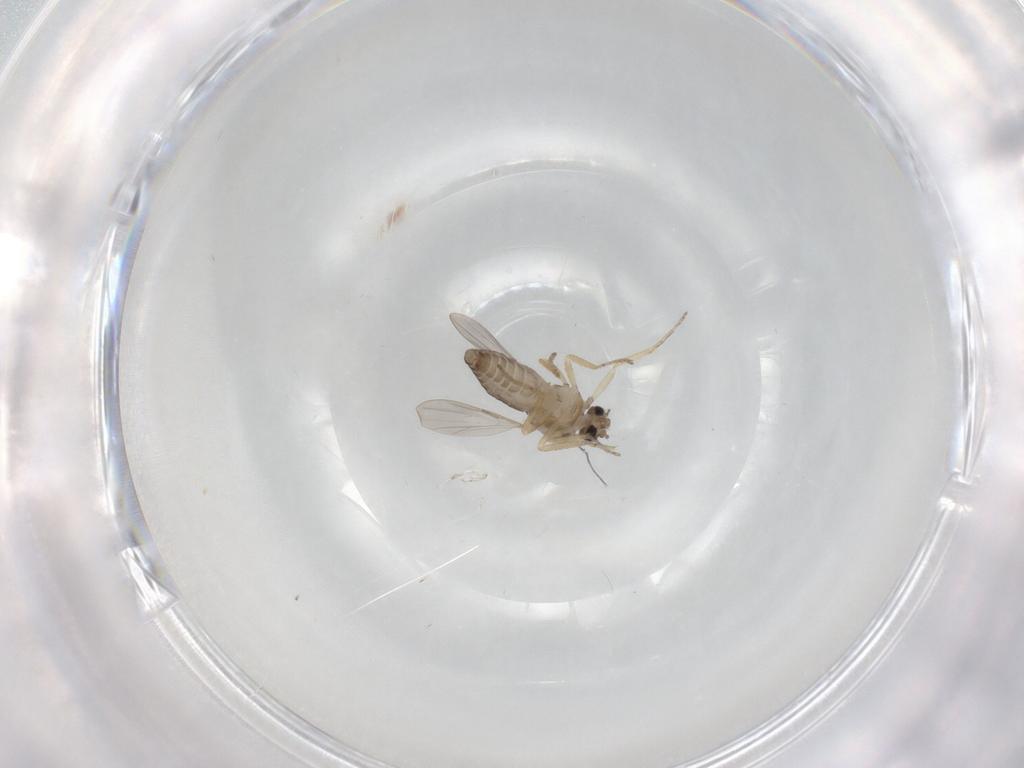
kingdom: Animalia
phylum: Arthropoda
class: Insecta
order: Diptera
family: Ceratopogonidae
